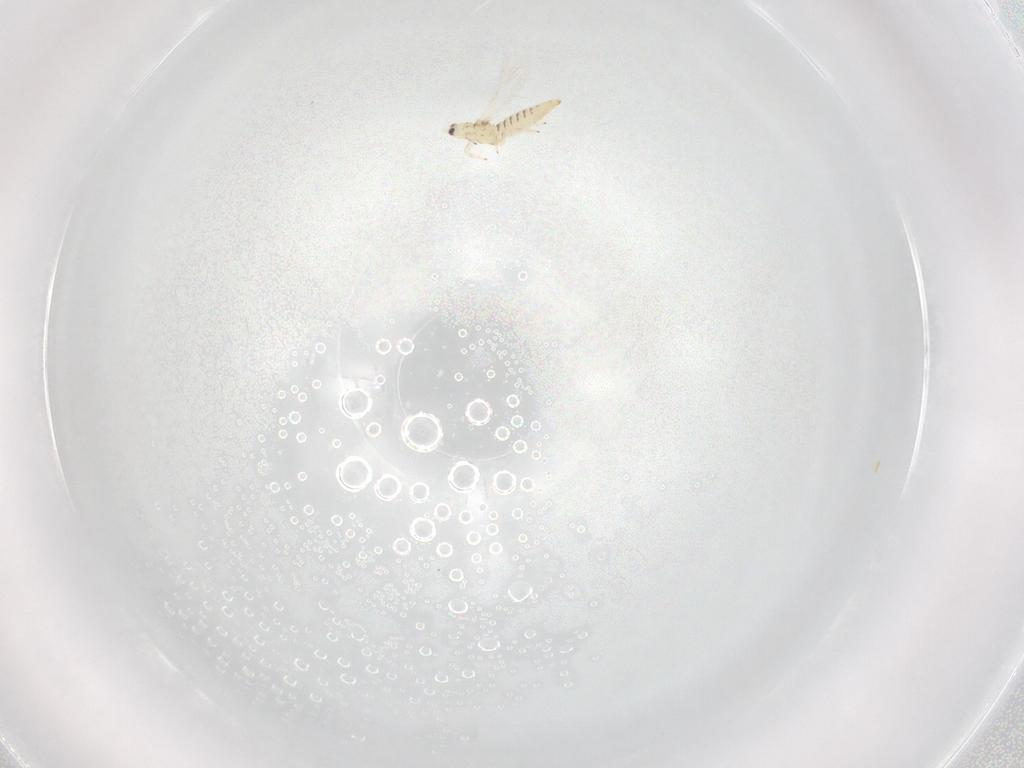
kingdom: Animalia
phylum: Arthropoda
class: Insecta
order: Thysanoptera
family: Thripidae
